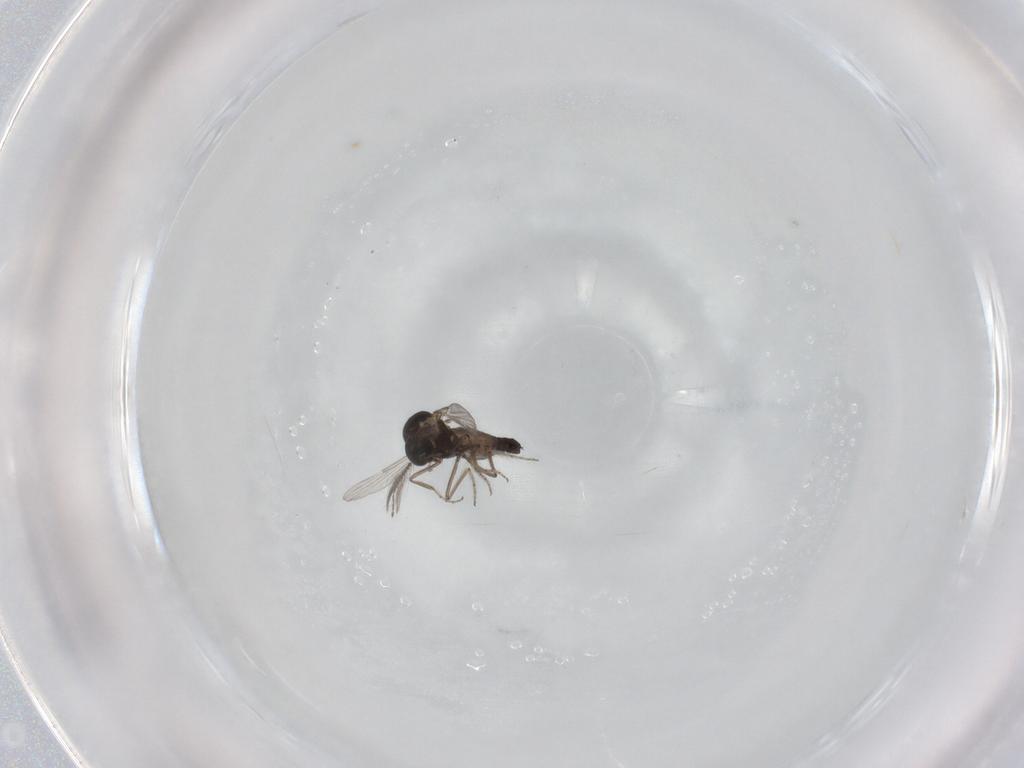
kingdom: Animalia
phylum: Arthropoda
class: Insecta
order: Diptera
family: Ceratopogonidae
